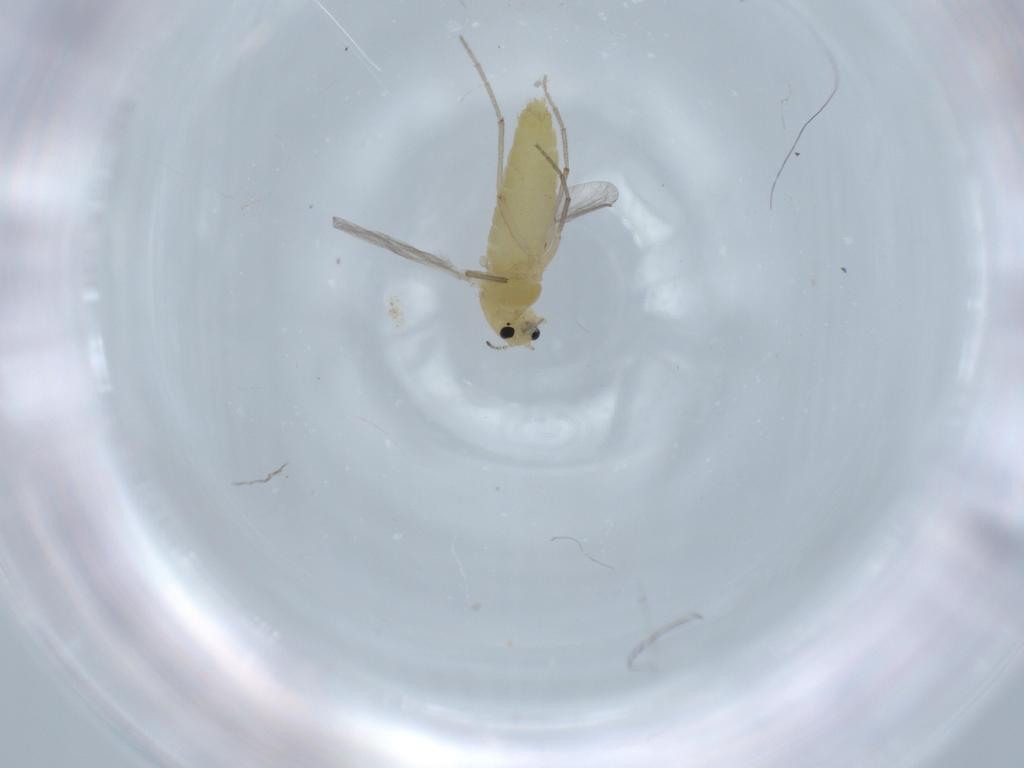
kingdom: Animalia
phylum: Arthropoda
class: Insecta
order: Diptera
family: Chironomidae
